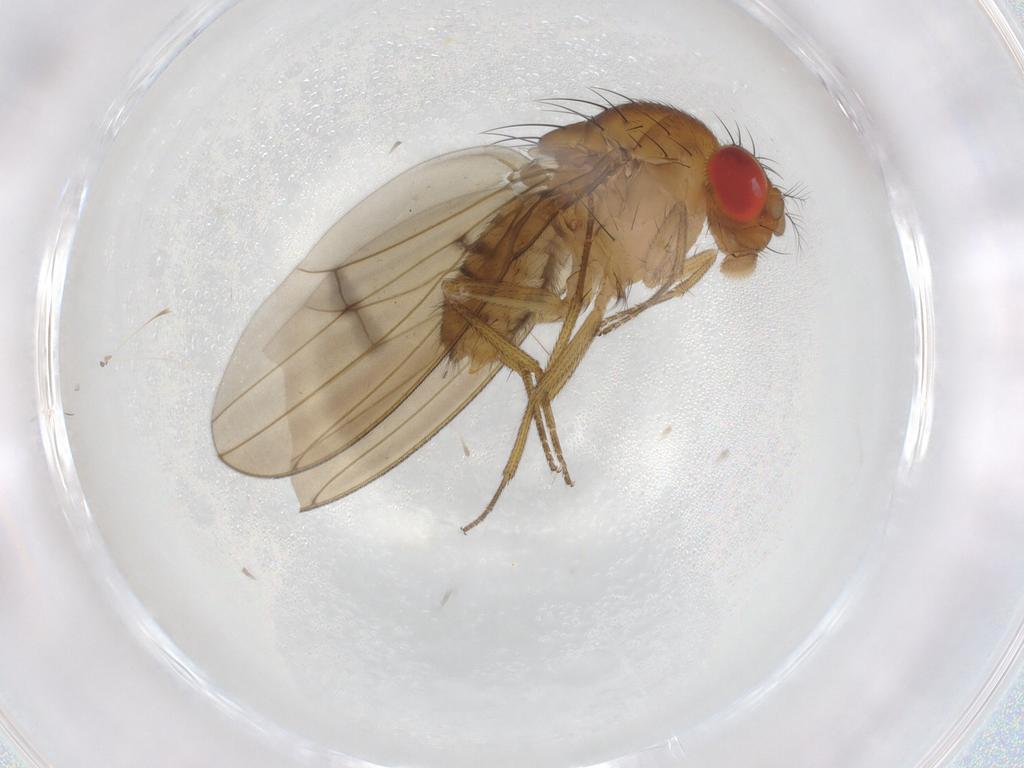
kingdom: Animalia
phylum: Arthropoda
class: Insecta
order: Diptera
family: Drosophilidae
